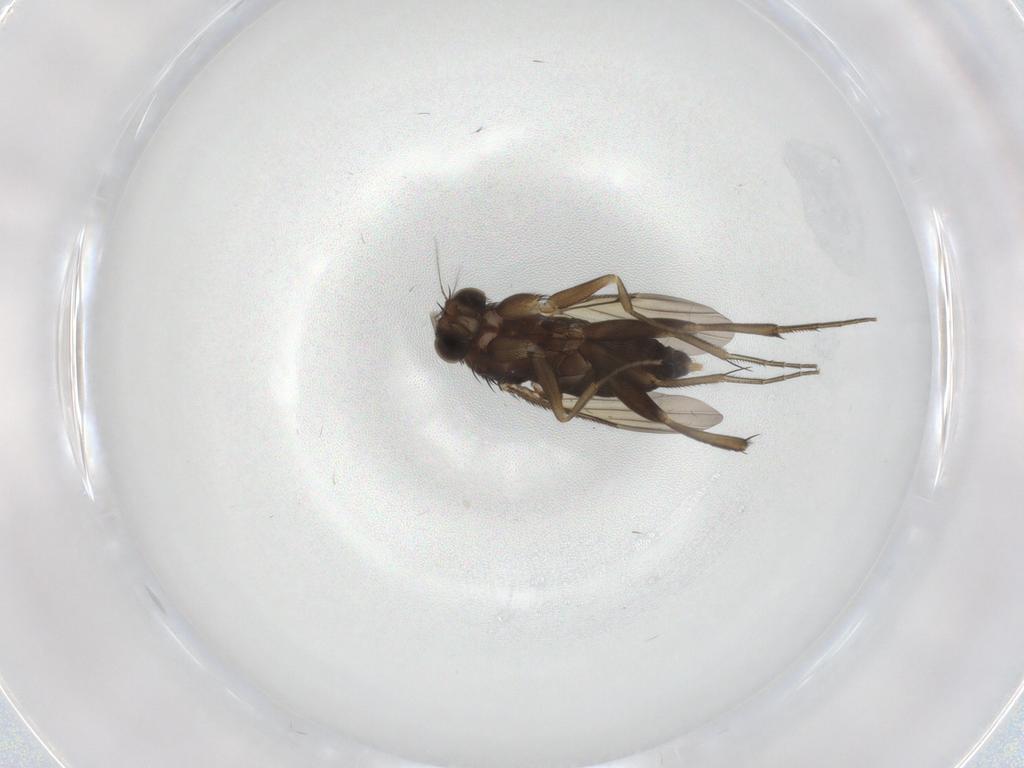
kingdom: Animalia
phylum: Arthropoda
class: Insecta
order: Diptera
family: Phoridae
